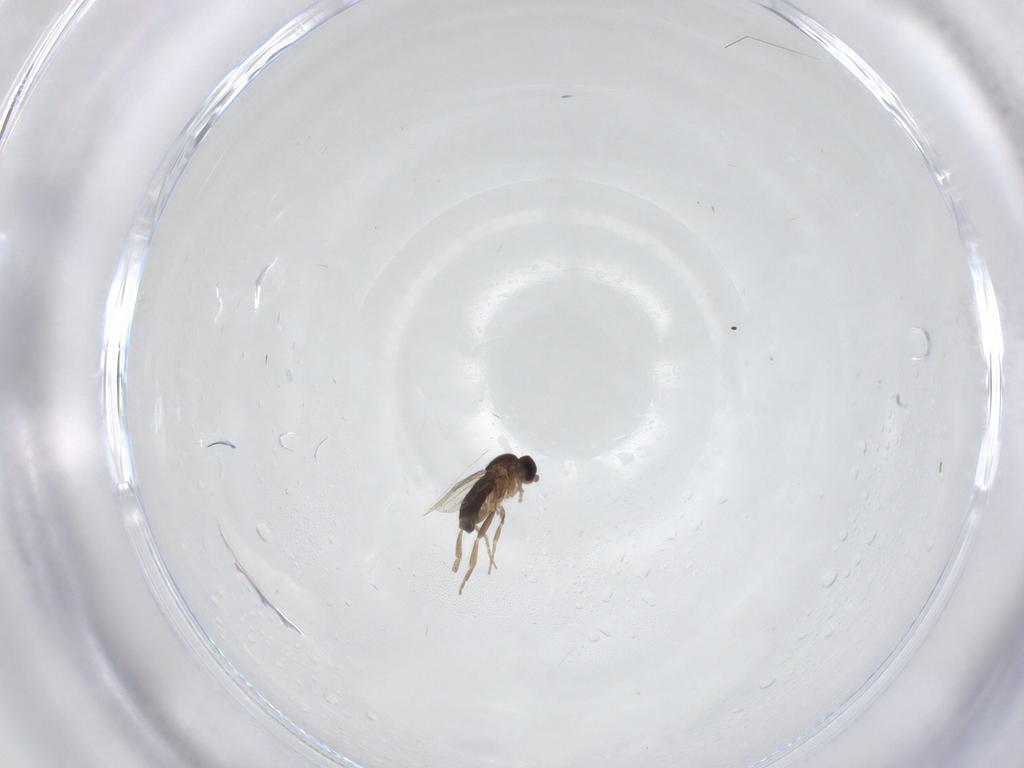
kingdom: Animalia
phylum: Arthropoda
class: Insecta
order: Diptera
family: Psychodidae
